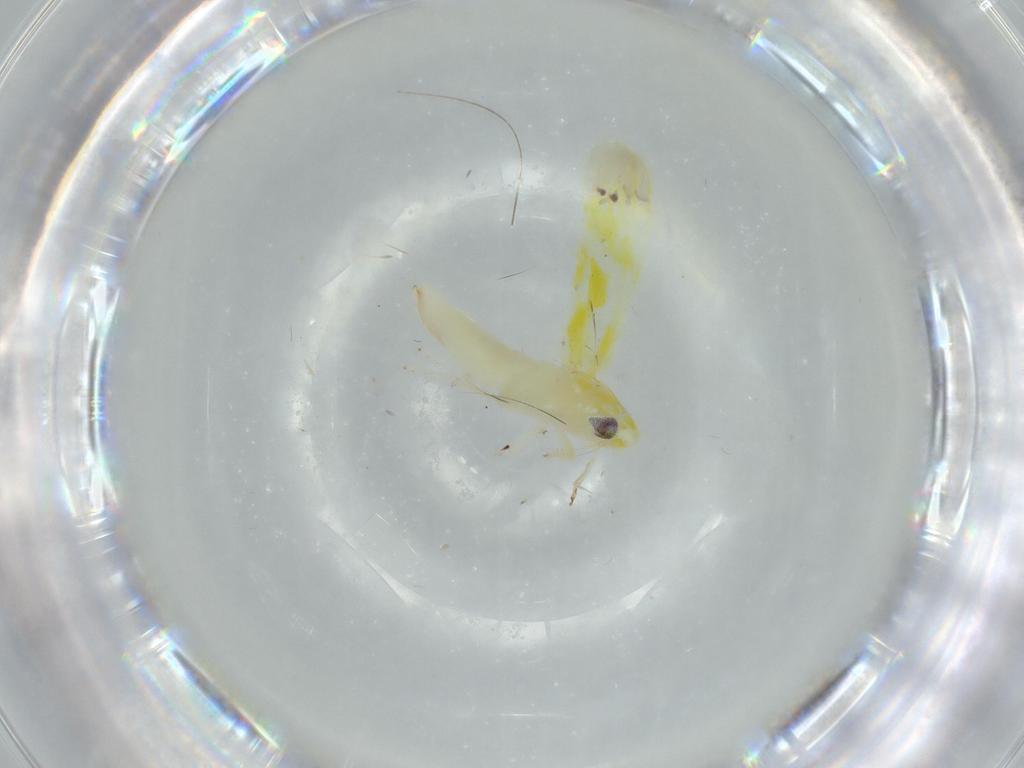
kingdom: Animalia
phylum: Arthropoda
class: Insecta
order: Hemiptera
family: Cicadellidae
